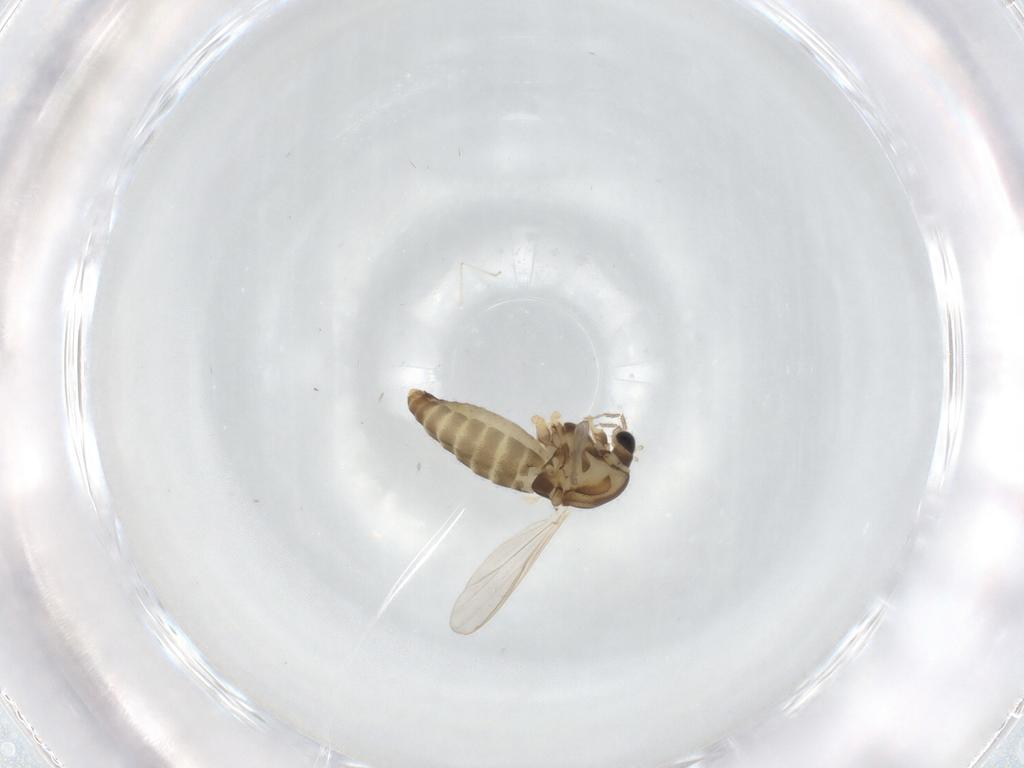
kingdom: Animalia
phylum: Arthropoda
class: Insecta
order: Diptera
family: Chironomidae
